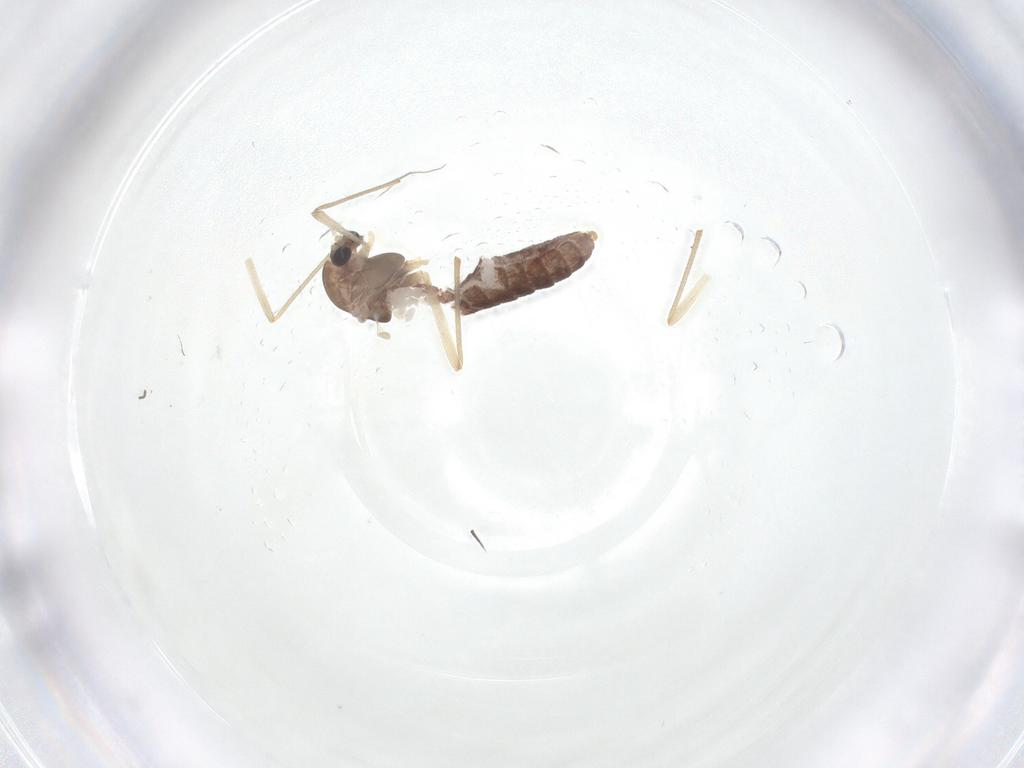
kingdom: Animalia
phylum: Arthropoda
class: Insecta
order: Diptera
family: Chironomidae
